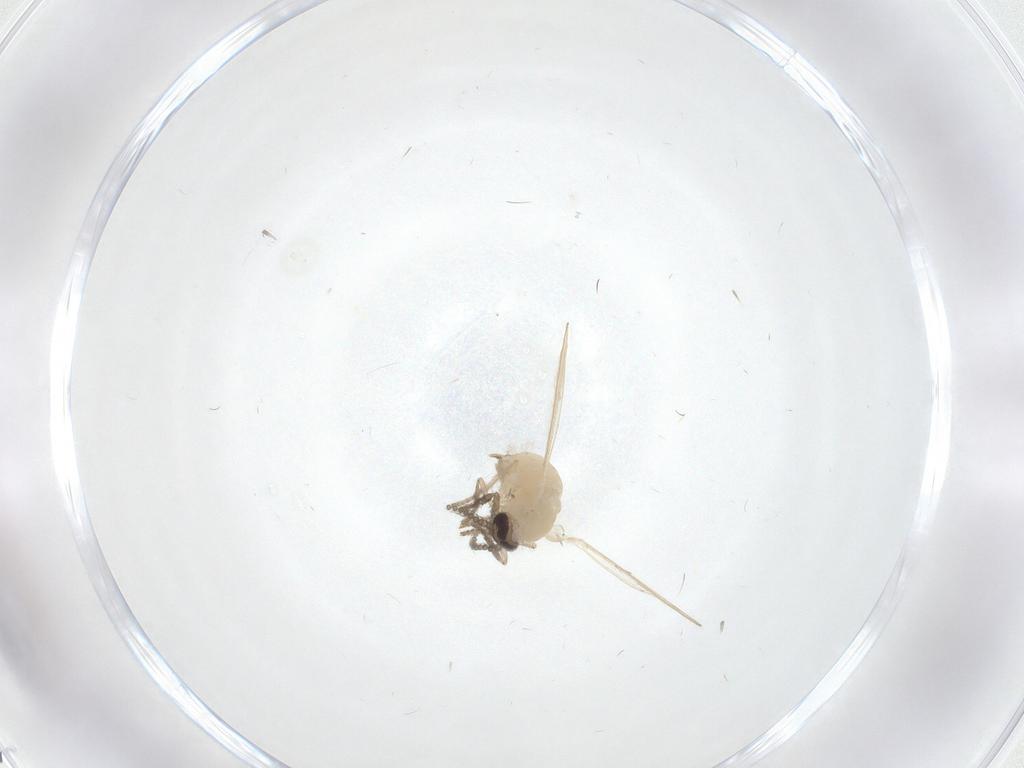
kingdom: Animalia
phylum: Arthropoda
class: Insecta
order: Diptera
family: Psychodidae
